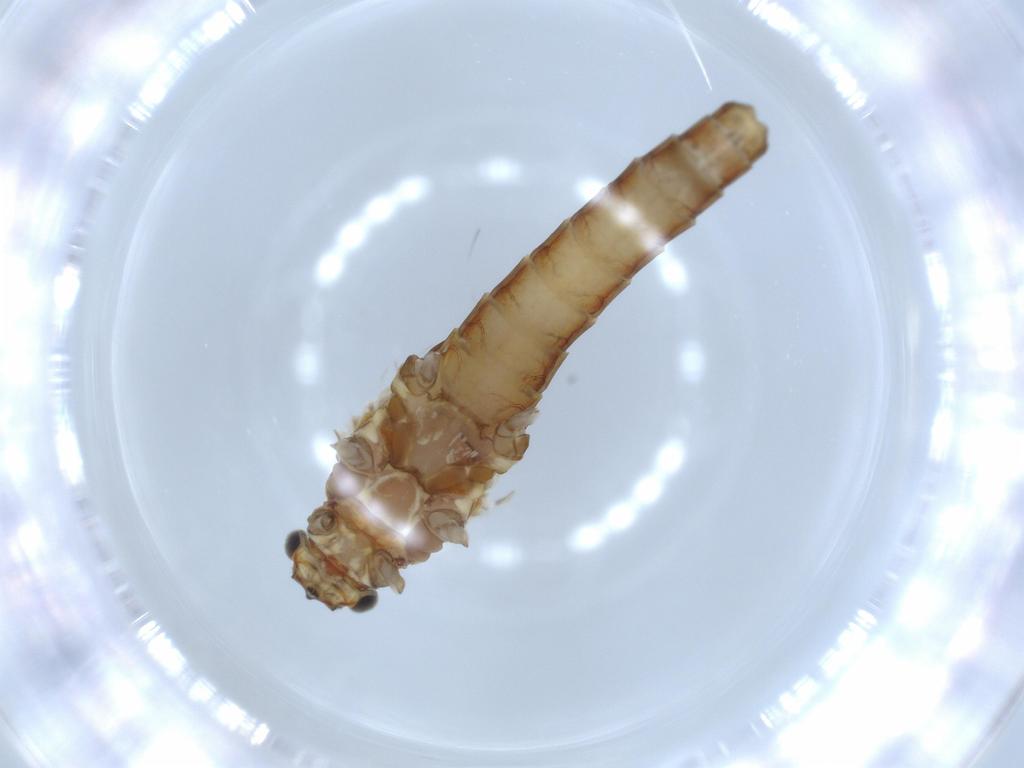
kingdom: Animalia
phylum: Arthropoda
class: Insecta
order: Ephemeroptera
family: Baetidae
